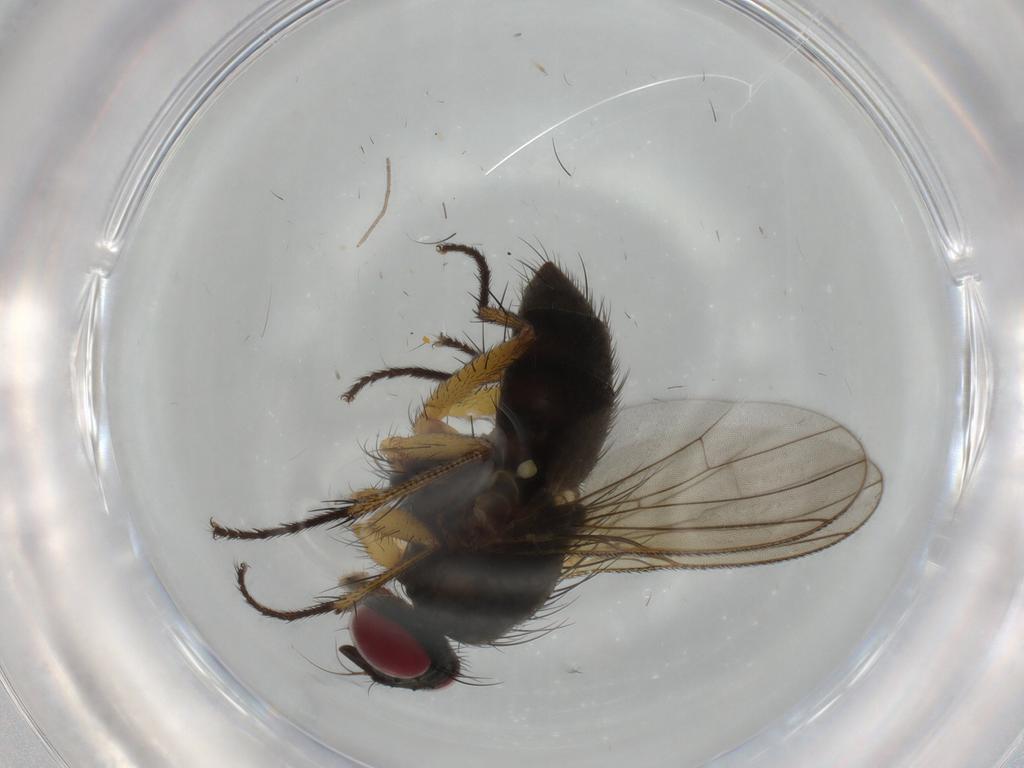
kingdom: Animalia
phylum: Arthropoda
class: Insecta
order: Diptera
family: Muscidae
